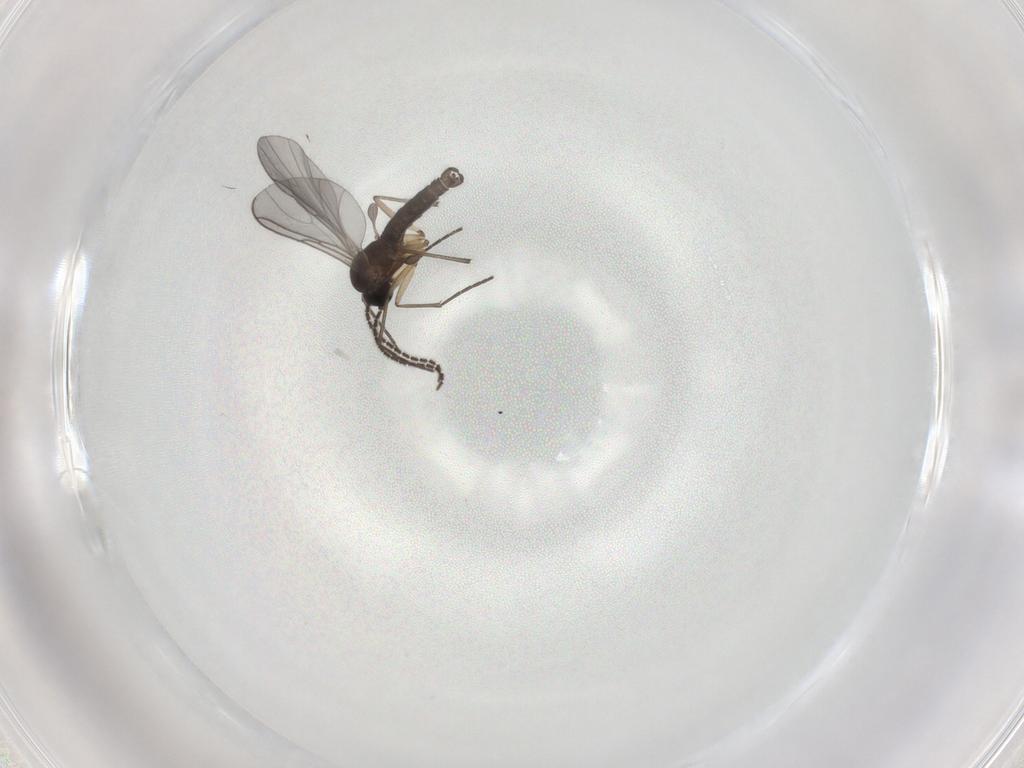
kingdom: Animalia
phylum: Arthropoda
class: Insecta
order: Diptera
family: Sciaridae
